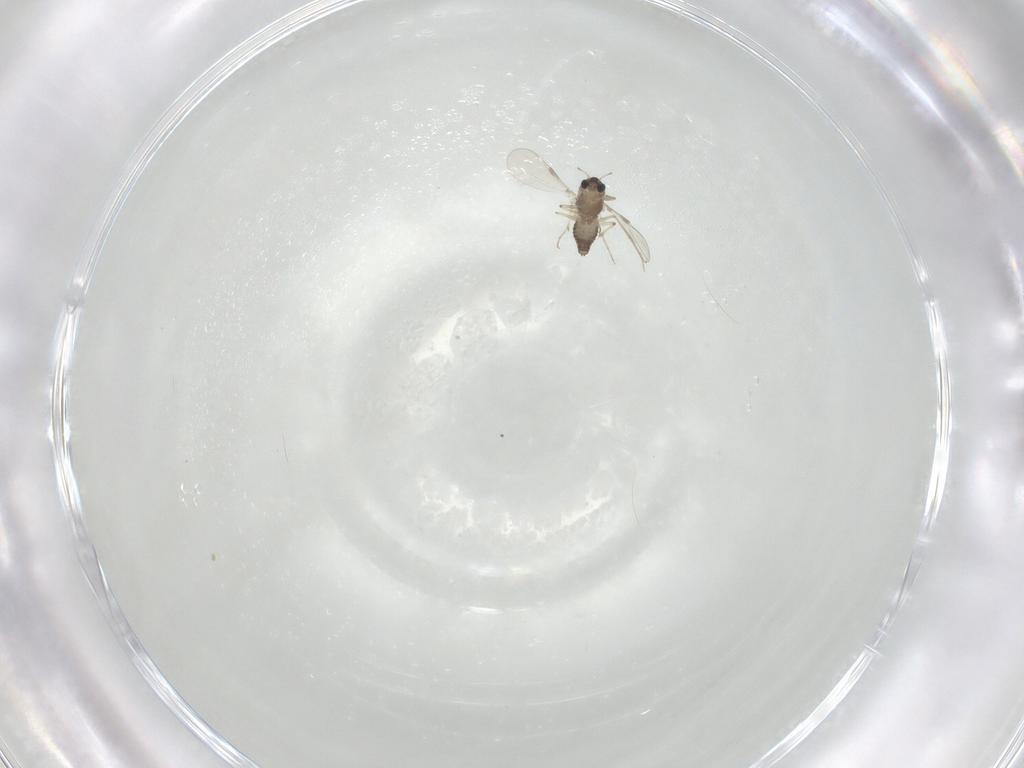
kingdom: Animalia
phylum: Arthropoda
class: Insecta
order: Diptera
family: Chironomidae
